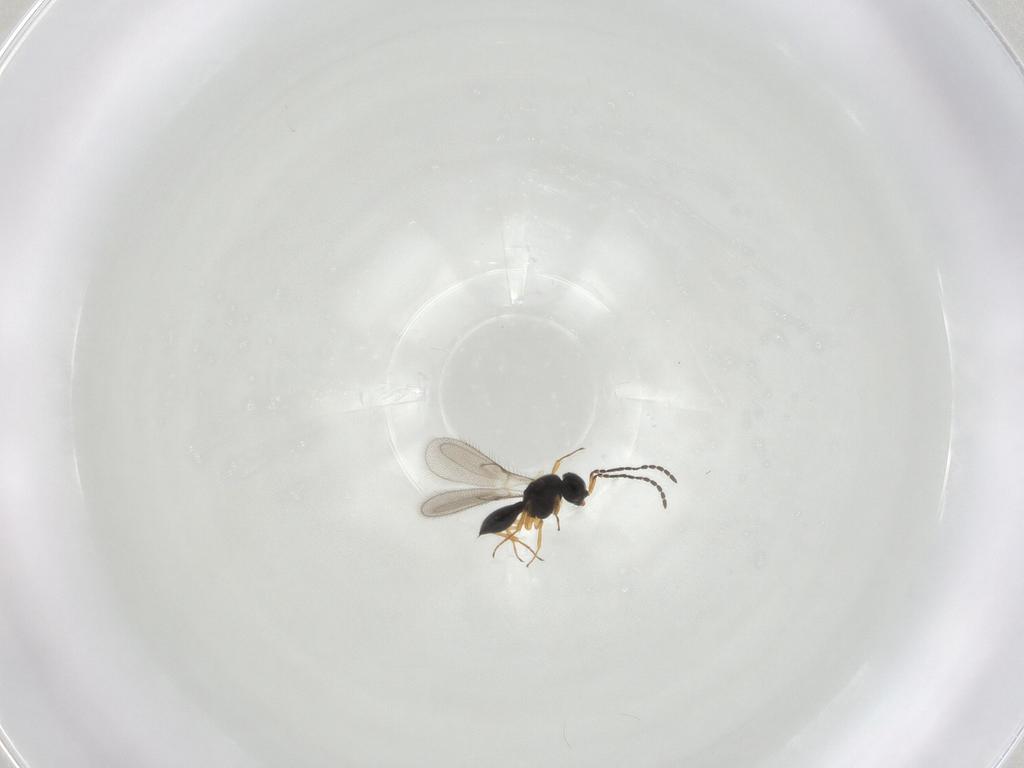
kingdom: Animalia
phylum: Arthropoda
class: Insecta
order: Hymenoptera
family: Scelionidae
